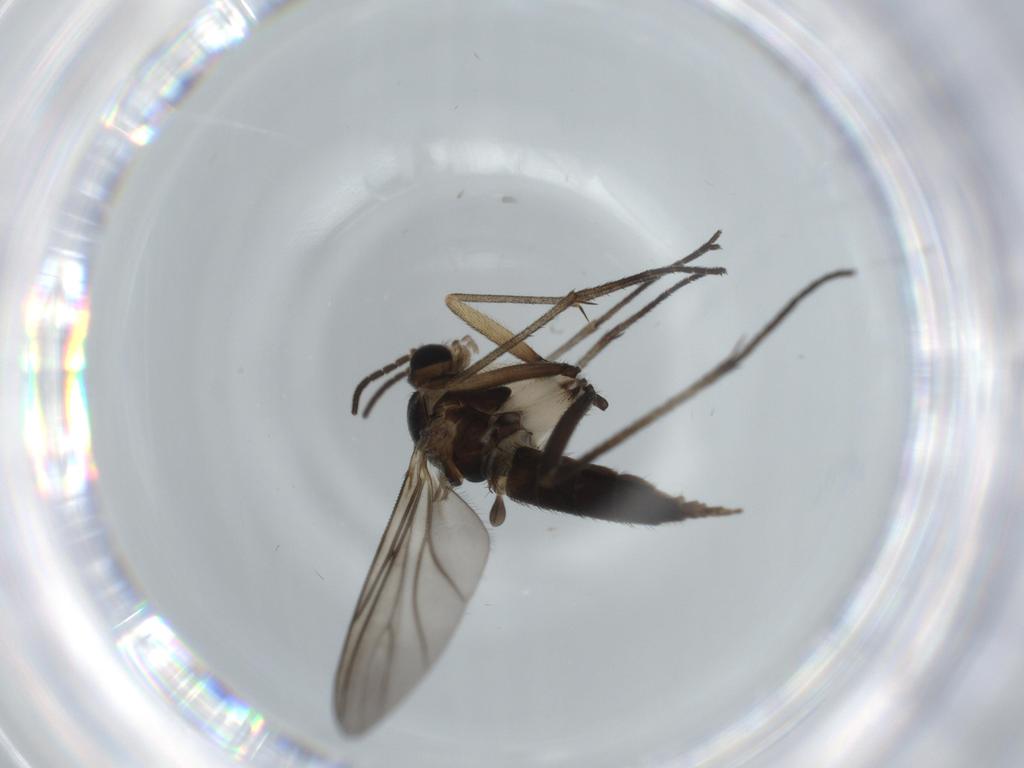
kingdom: Animalia
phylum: Arthropoda
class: Insecta
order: Diptera
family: Sciaridae
